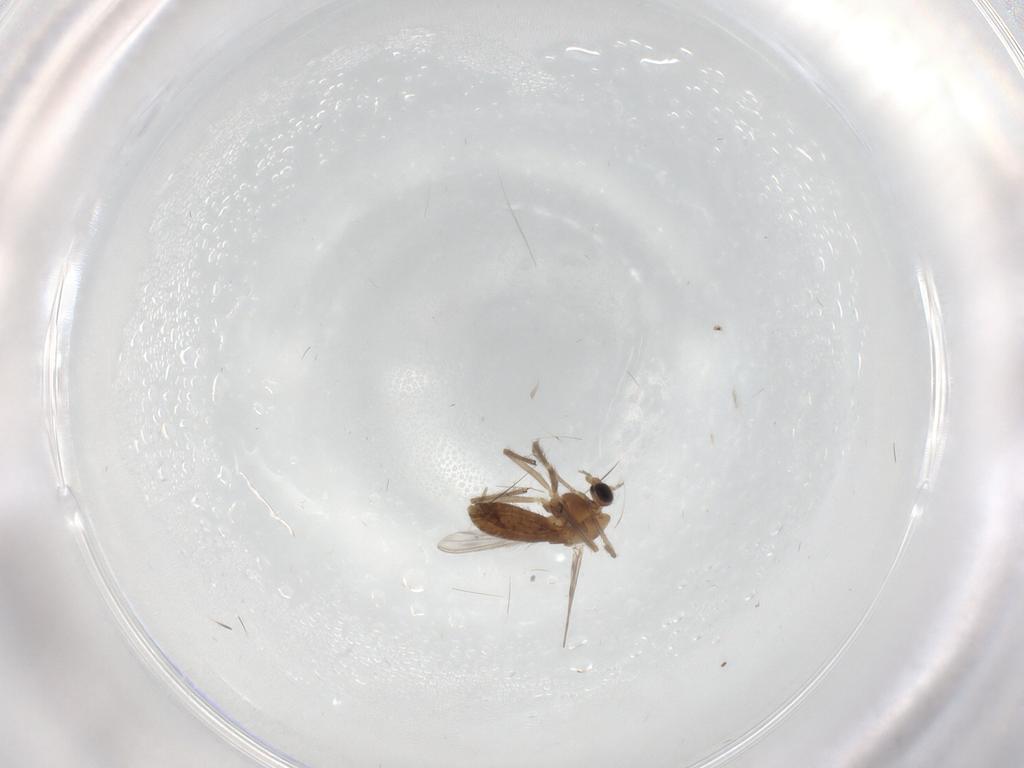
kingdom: Animalia
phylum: Arthropoda
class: Insecta
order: Diptera
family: Chironomidae
